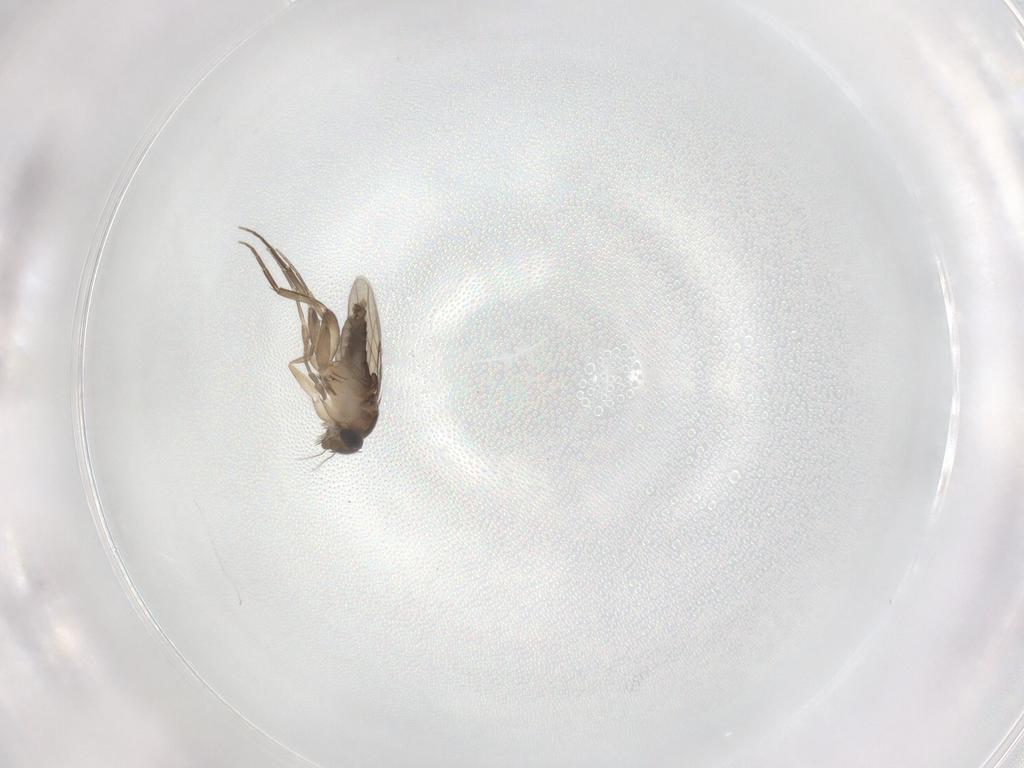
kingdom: Animalia
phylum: Arthropoda
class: Insecta
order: Diptera
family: Phoridae
